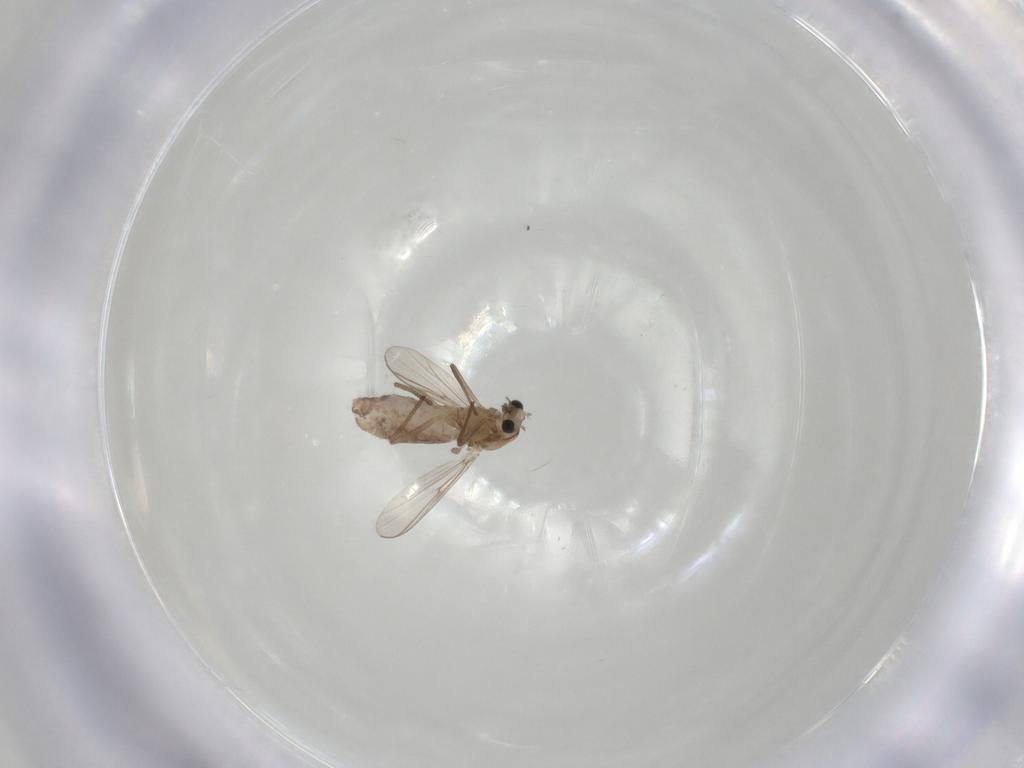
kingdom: Animalia
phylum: Arthropoda
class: Insecta
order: Diptera
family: Chironomidae
